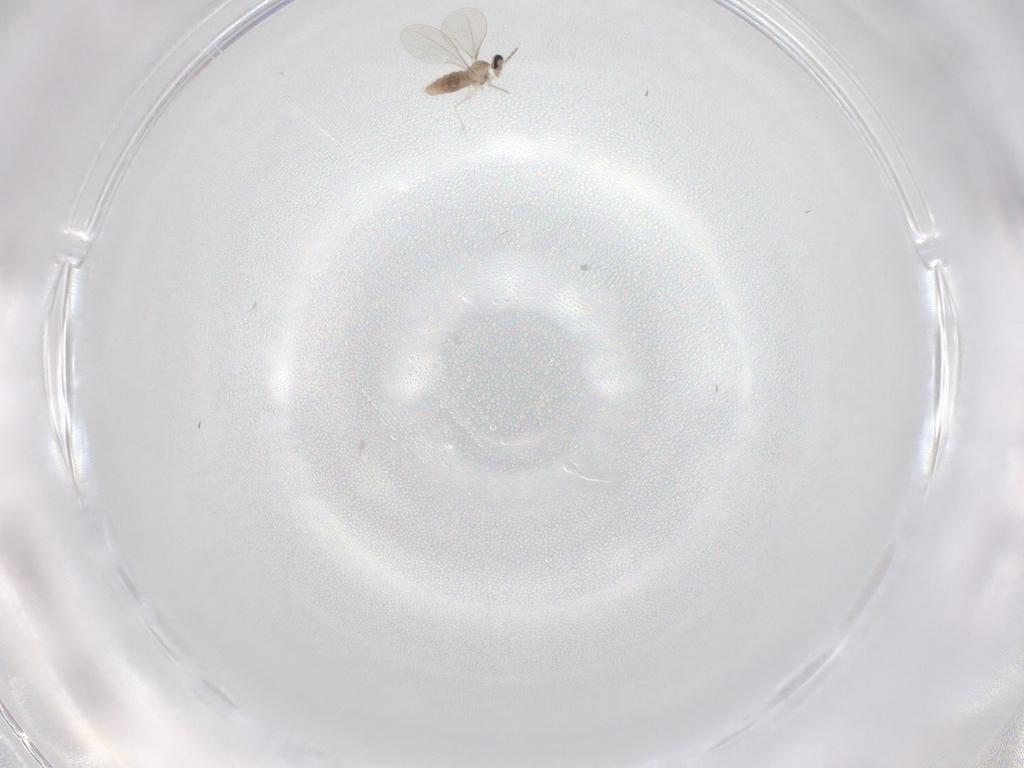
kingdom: Animalia
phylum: Arthropoda
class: Insecta
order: Diptera
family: Cecidomyiidae
